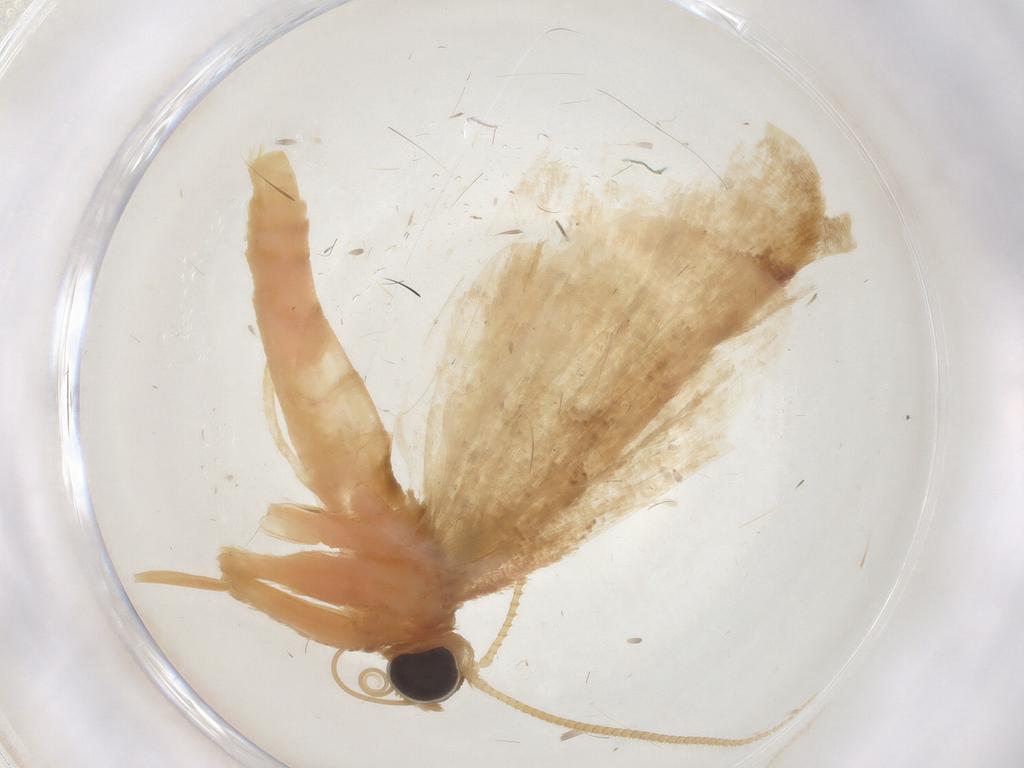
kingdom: Animalia
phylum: Arthropoda
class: Insecta
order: Lepidoptera
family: Geometridae
